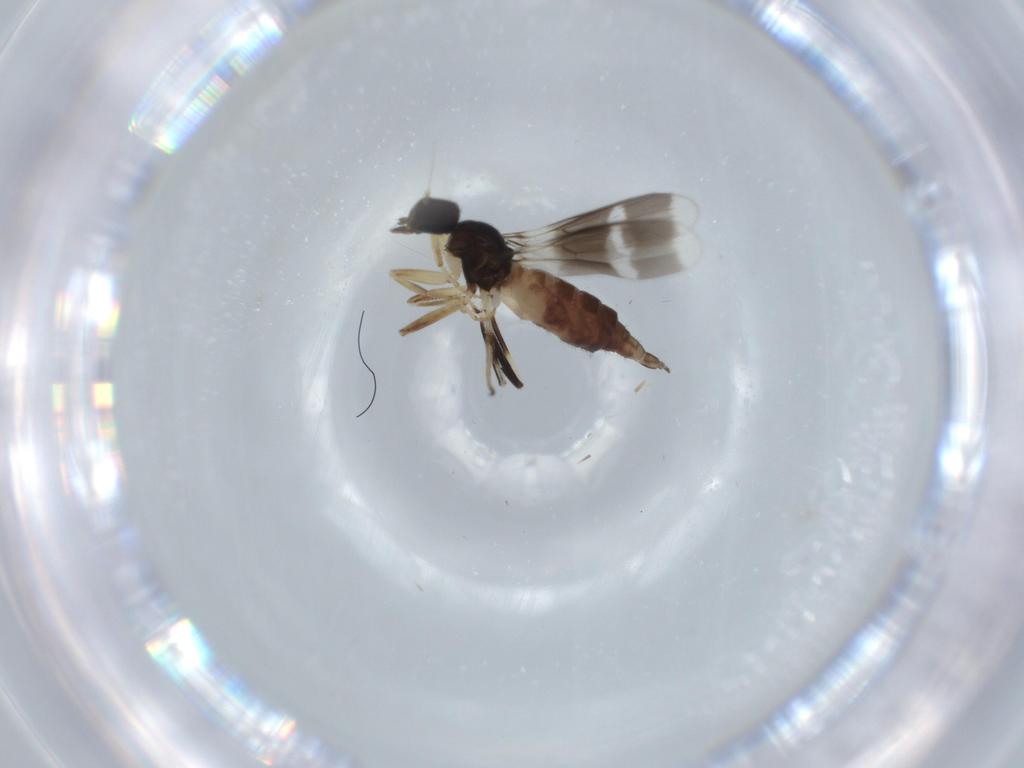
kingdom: Animalia
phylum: Arthropoda
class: Insecta
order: Diptera
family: Hybotidae
